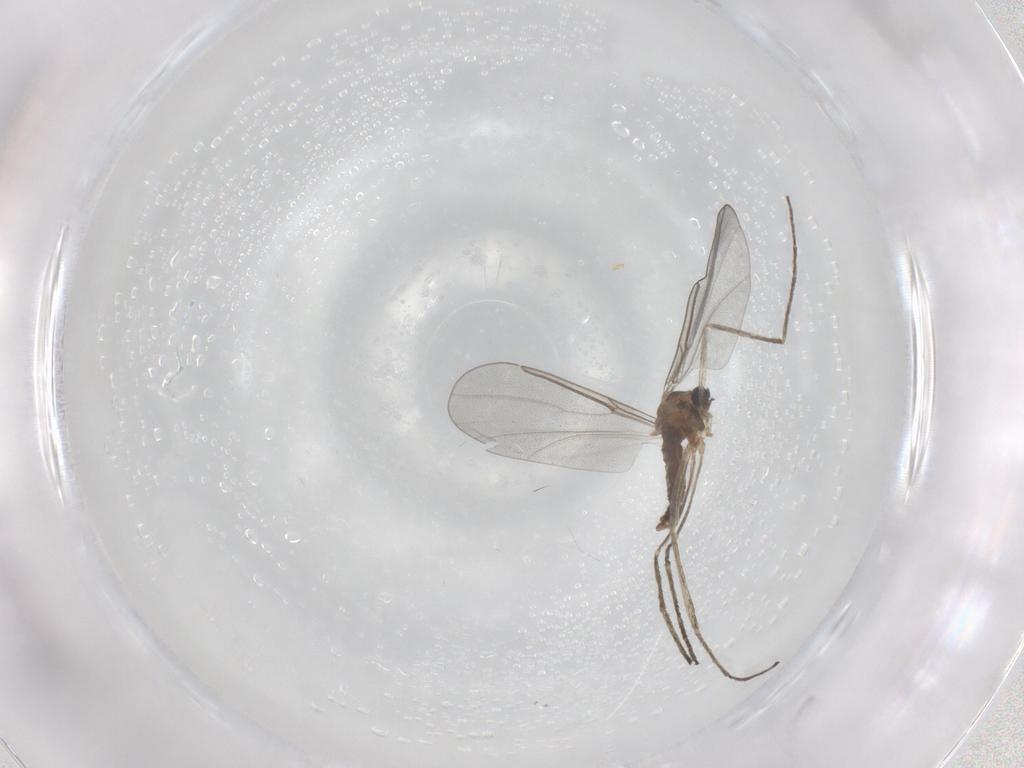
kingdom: Animalia
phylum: Arthropoda
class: Insecta
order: Diptera
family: Cecidomyiidae
